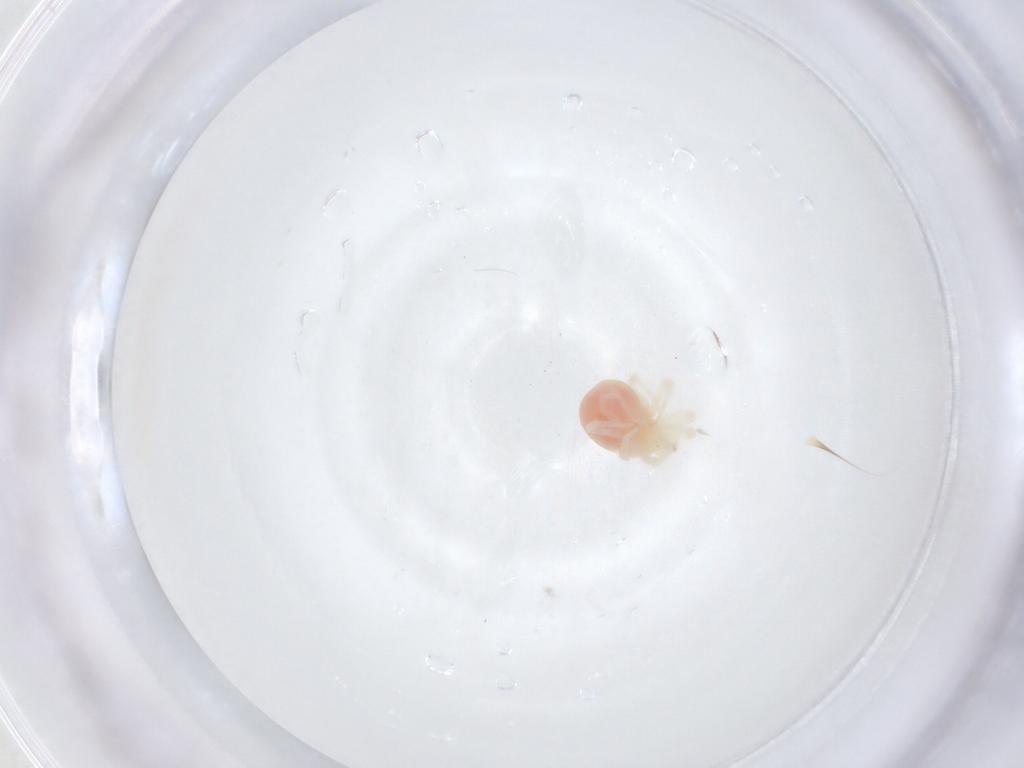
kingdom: Animalia
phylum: Arthropoda
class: Arachnida
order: Trombidiformes
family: Anystidae
